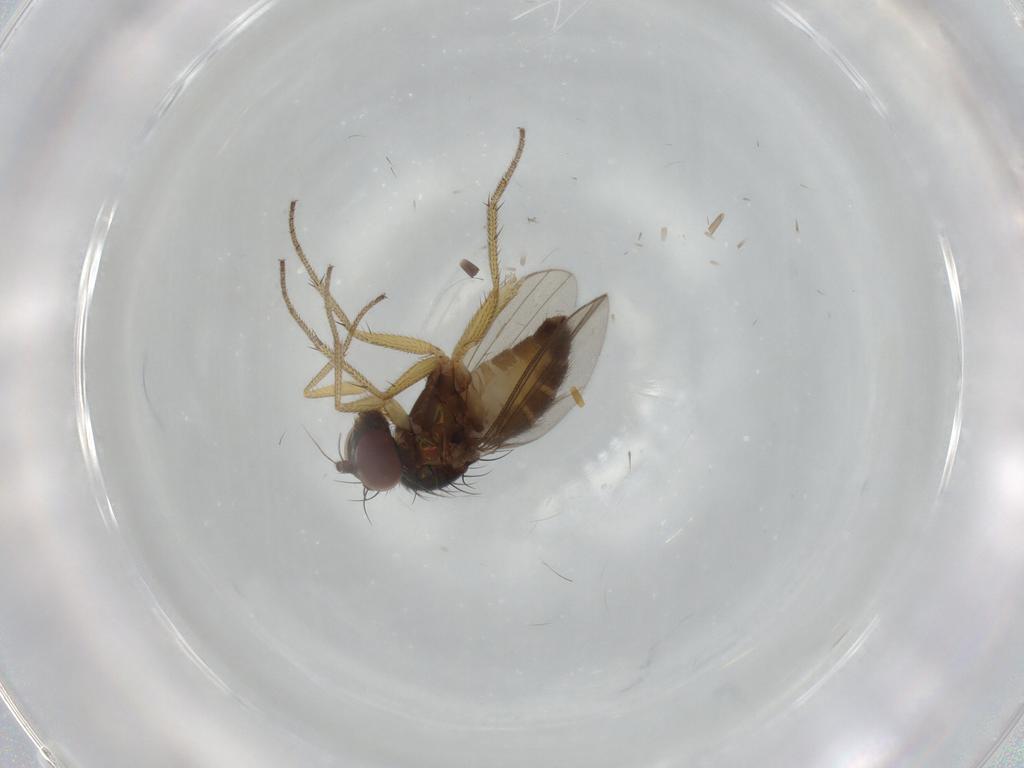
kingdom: Animalia
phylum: Arthropoda
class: Insecta
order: Diptera
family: Dolichopodidae
